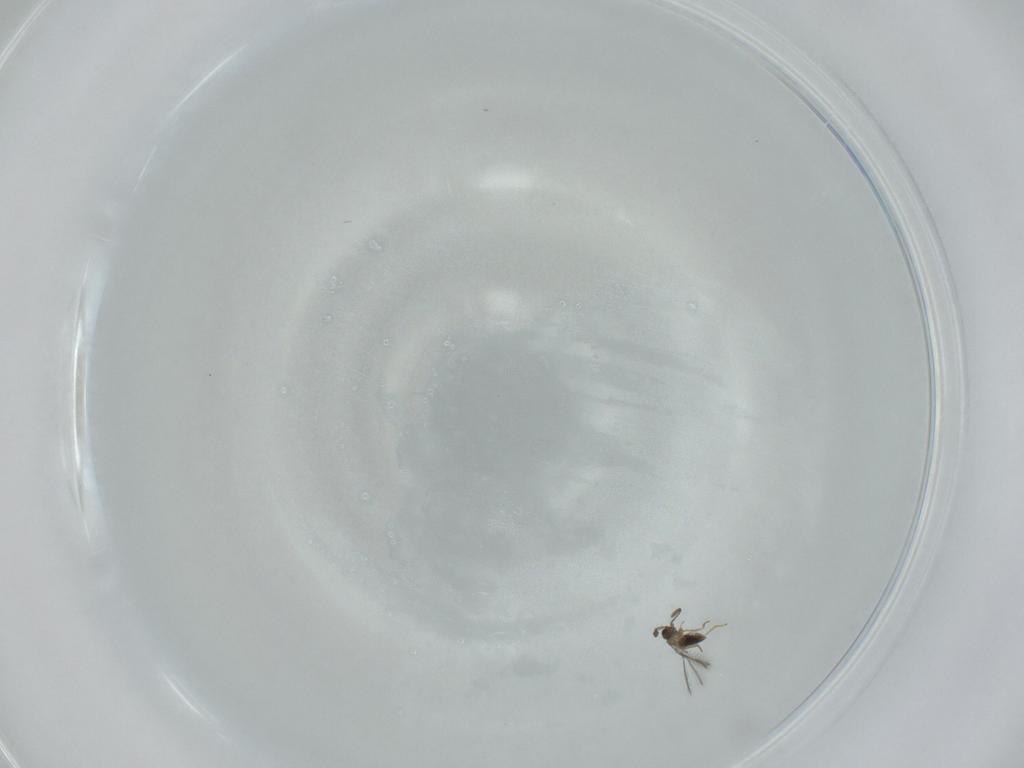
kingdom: Animalia
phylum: Arthropoda
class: Insecta
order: Hymenoptera
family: Mymaridae
